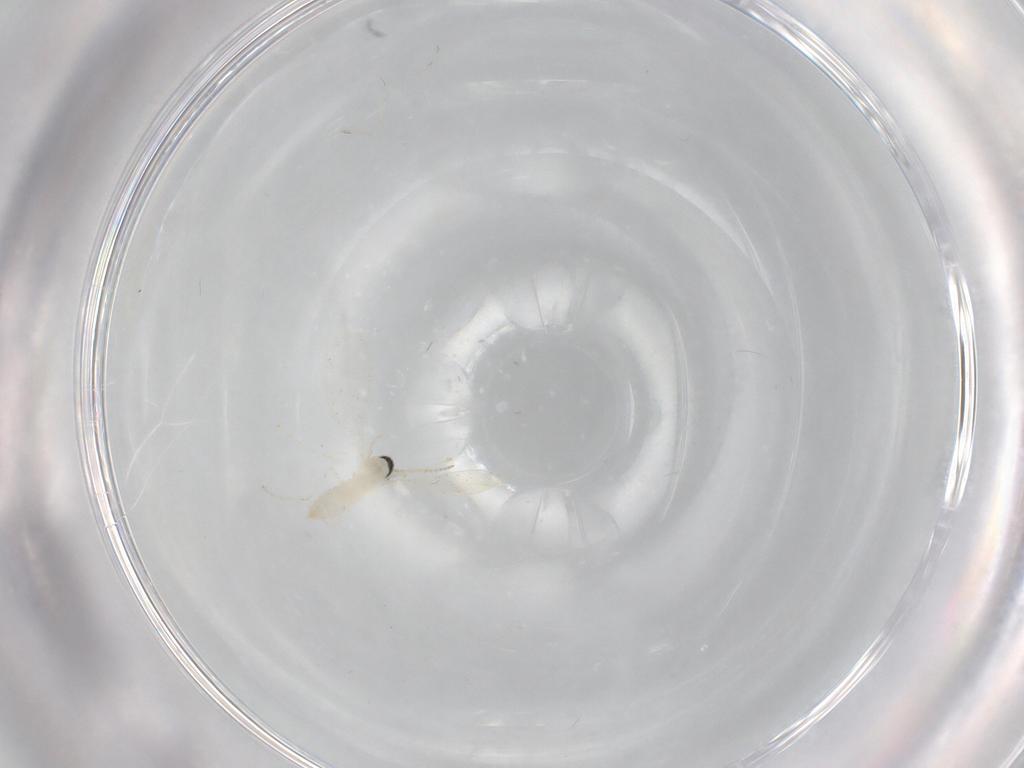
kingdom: Animalia
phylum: Arthropoda
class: Insecta
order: Diptera
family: Cecidomyiidae
